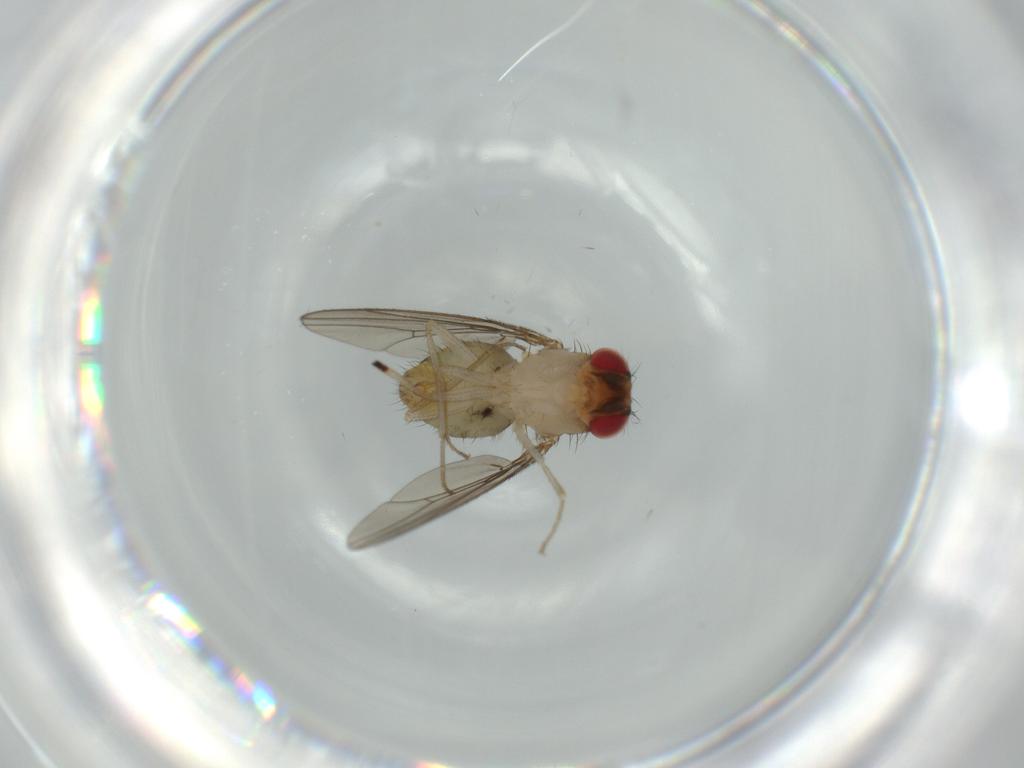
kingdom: Animalia
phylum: Arthropoda
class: Insecta
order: Diptera
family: Drosophilidae
